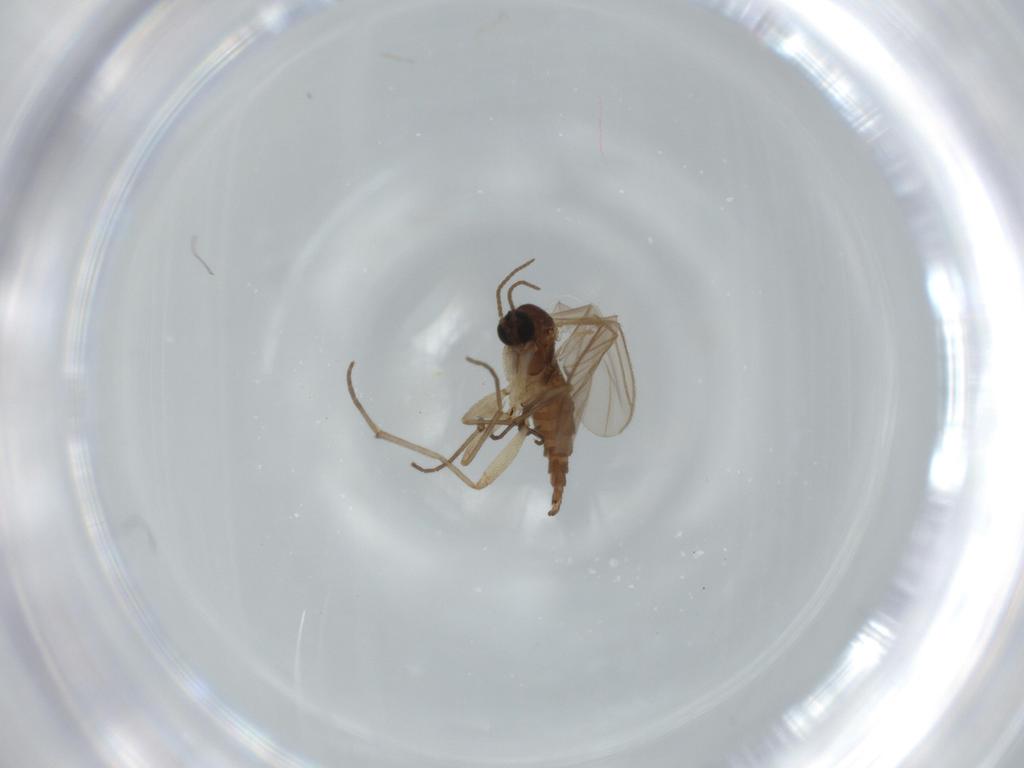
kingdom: Animalia
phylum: Arthropoda
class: Insecta
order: Diptera
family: Sciaridae
